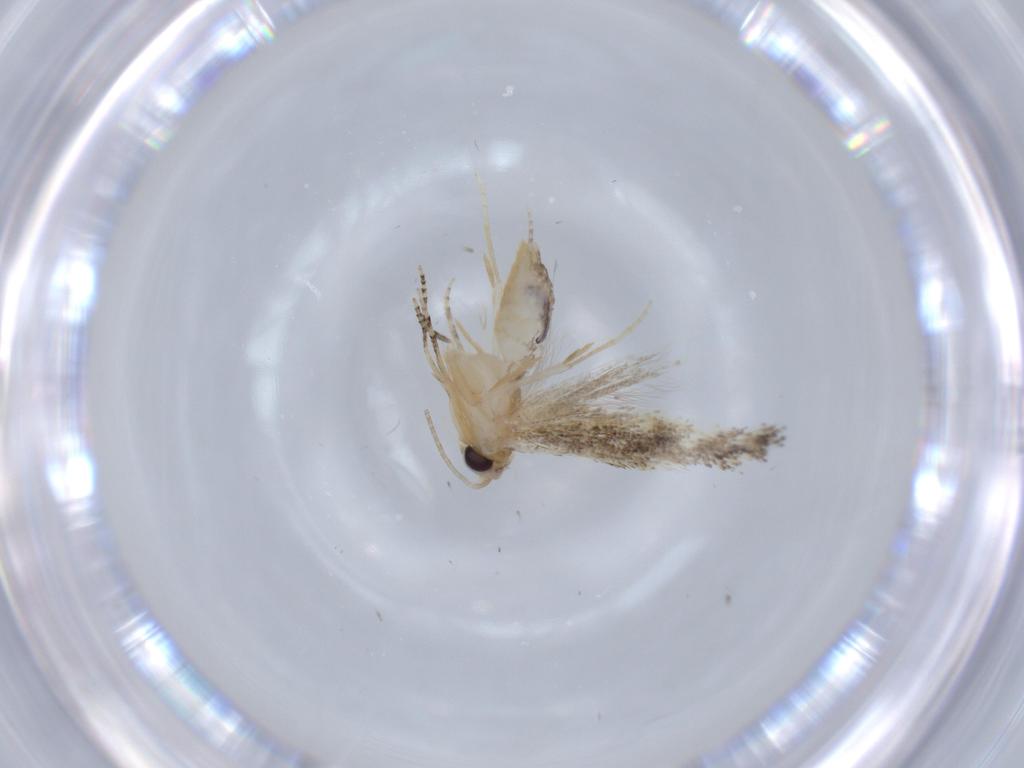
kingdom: Animalia
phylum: Arthropoda
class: Insecta
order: Lepidoptera
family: Bucculatricidae
